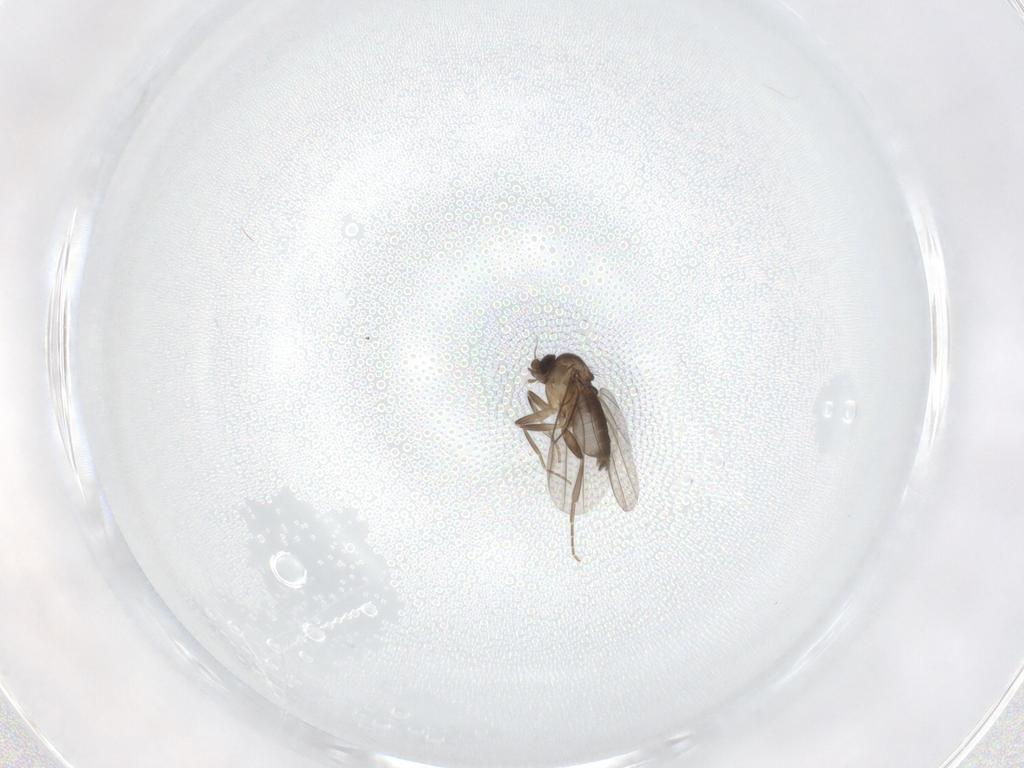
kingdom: Animalia
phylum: Arthropoda
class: Insecta
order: Diptera
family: Phoridae
